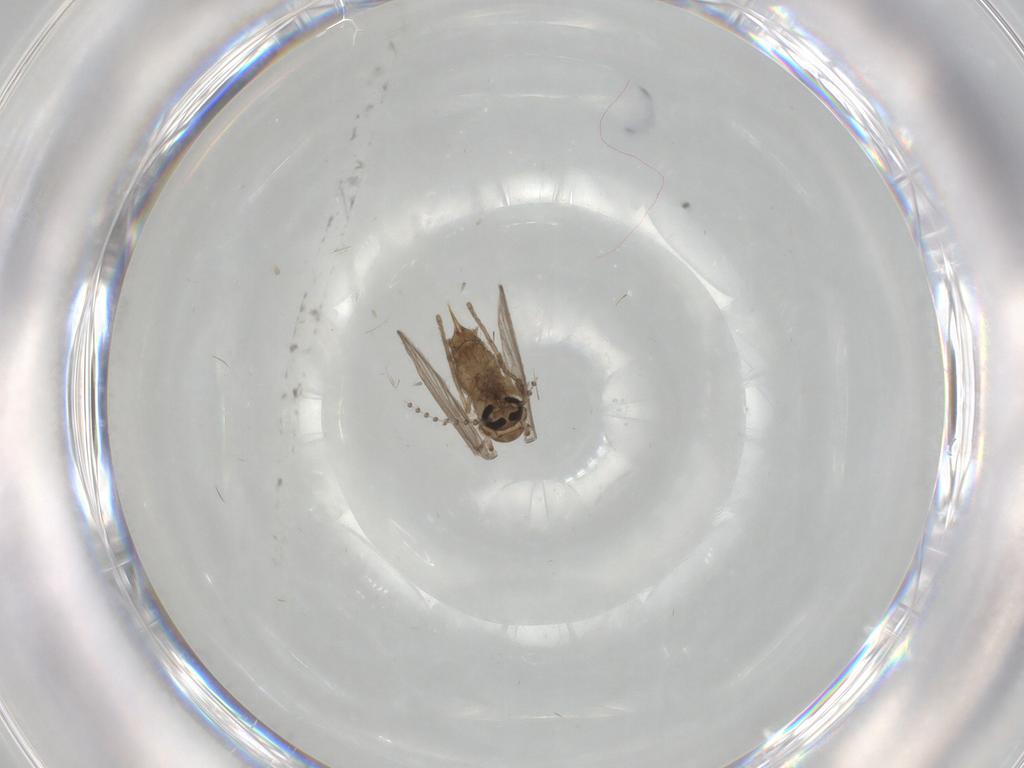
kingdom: Animalia
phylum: Arthropoda
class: Insecta
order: Diptera
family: Psychodidae
